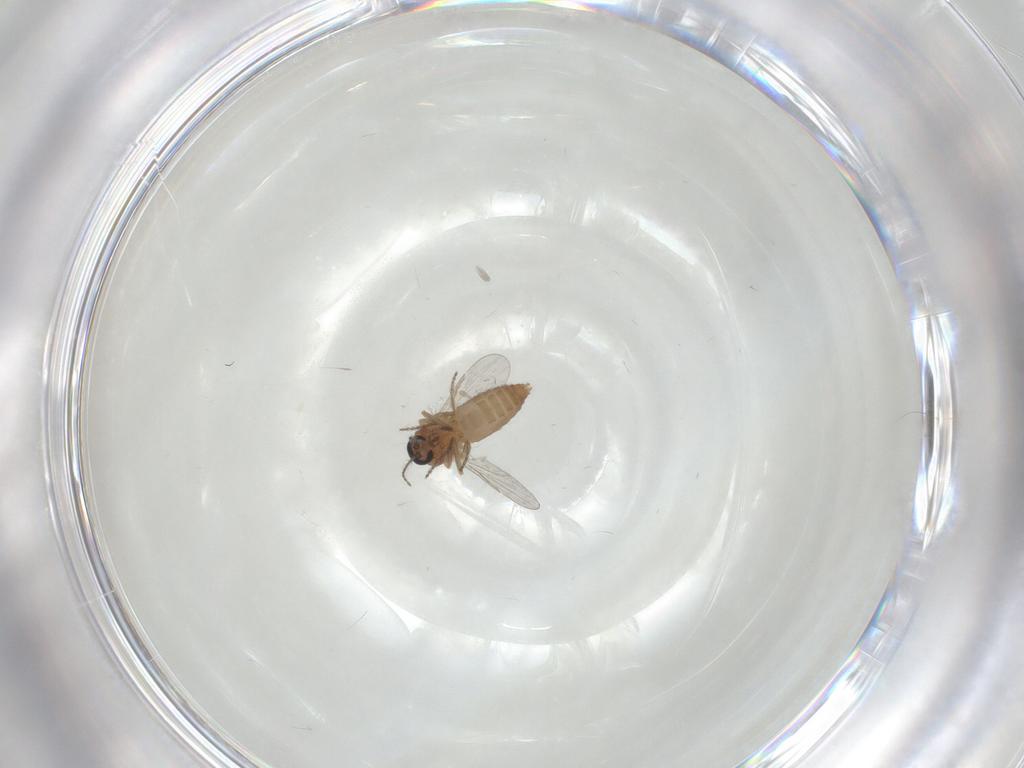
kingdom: Animalia
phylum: Arthropoda
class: Insecta
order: Diptera
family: Ceratopogonidae
